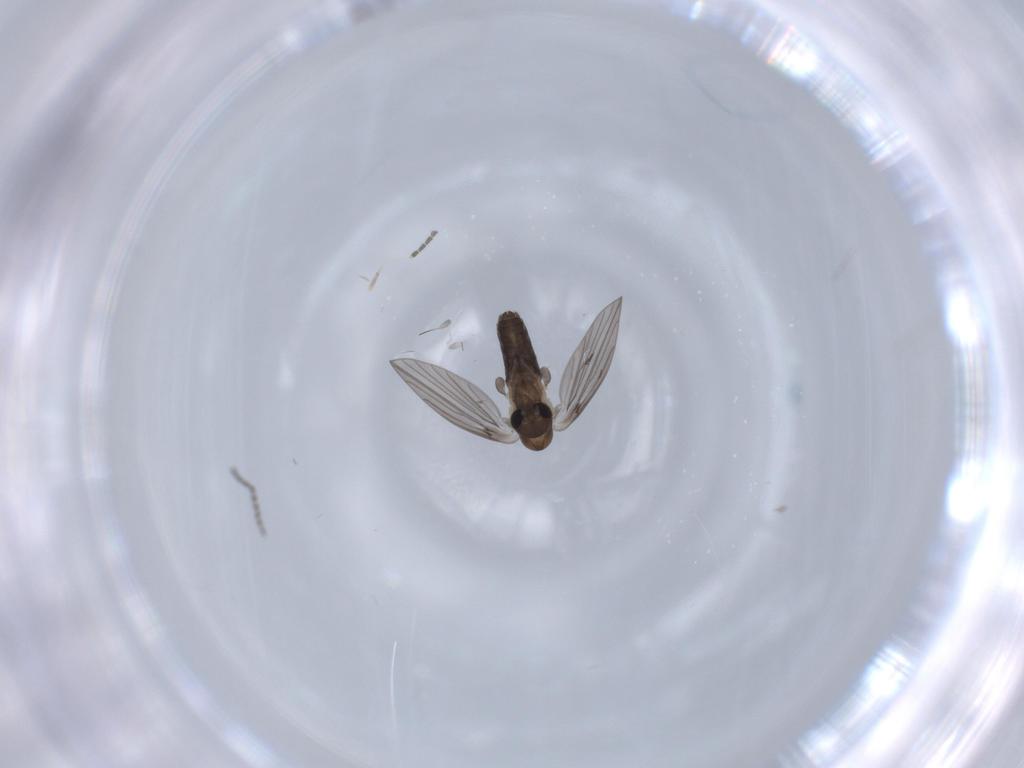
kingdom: Animalia
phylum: Arthropoda
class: Insecta
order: Diptera
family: Psychodidae
